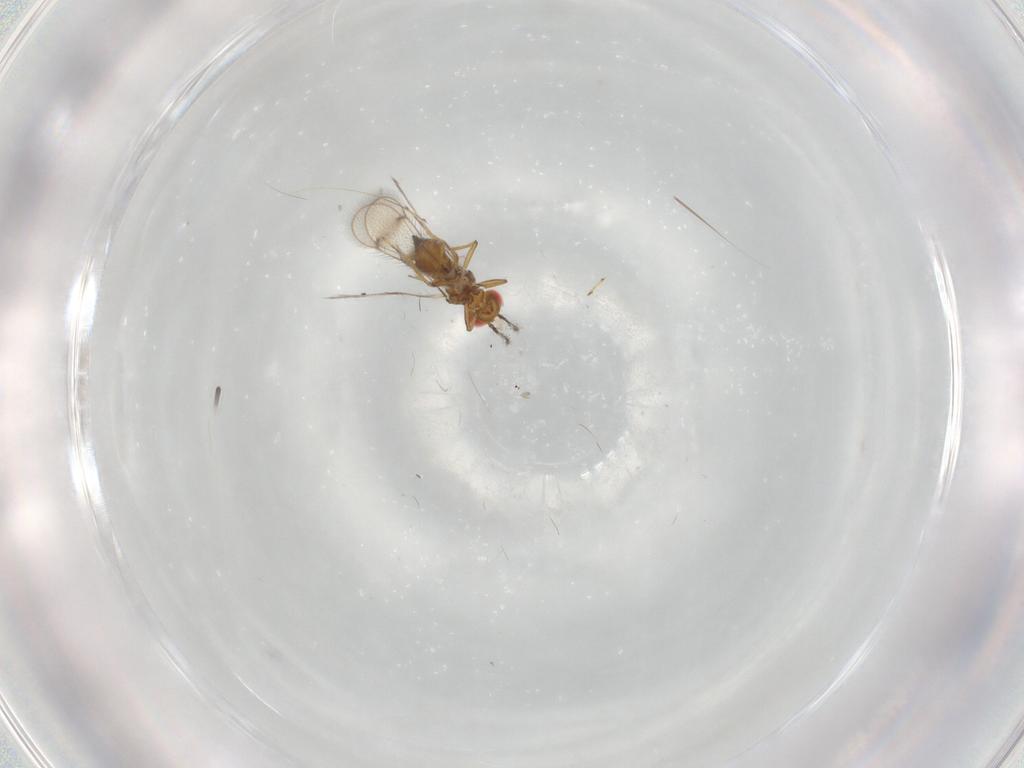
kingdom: Animalia
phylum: Arthropoda
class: Insecta
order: Hymenoptera
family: Eulophidae
